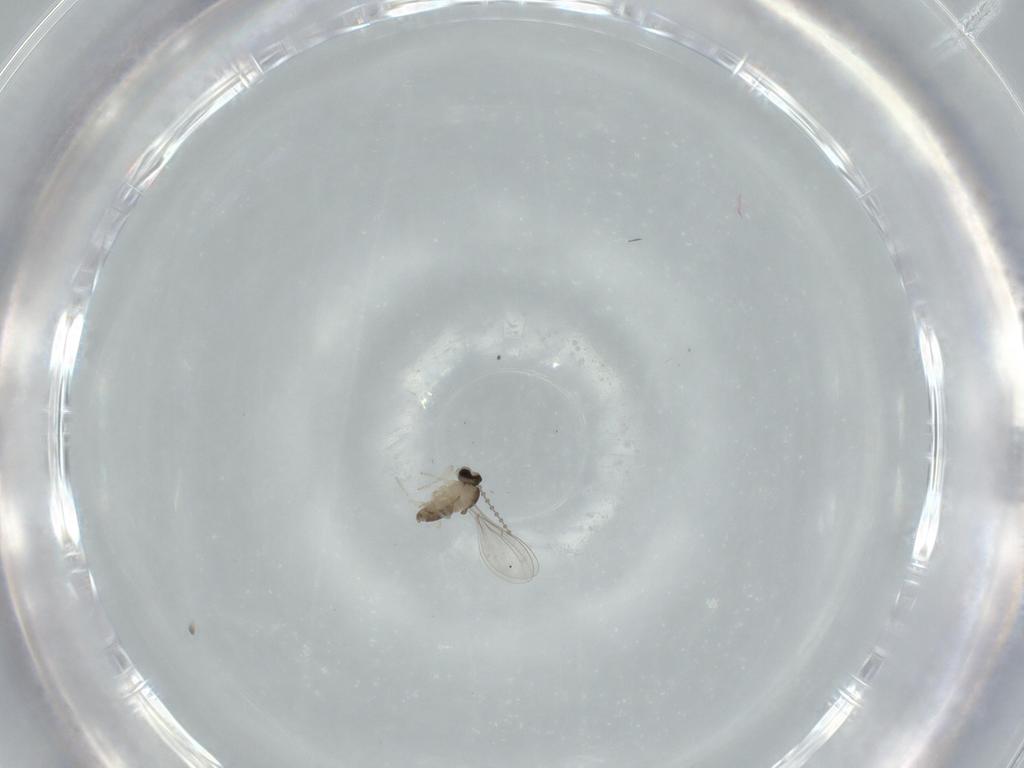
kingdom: Animalia
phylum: Arthropoda
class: Insecta
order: Diptera
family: Cecidomyiidae
